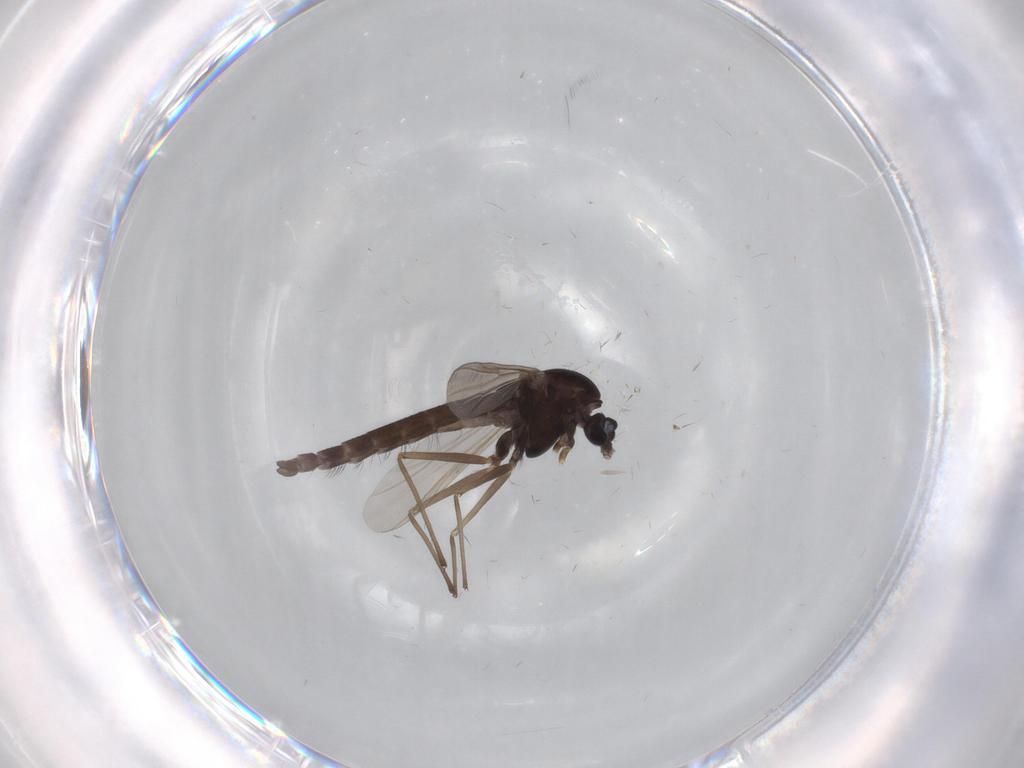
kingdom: Animalia
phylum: Arthropoda
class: Insecta
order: Diptera
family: Chironomidae
